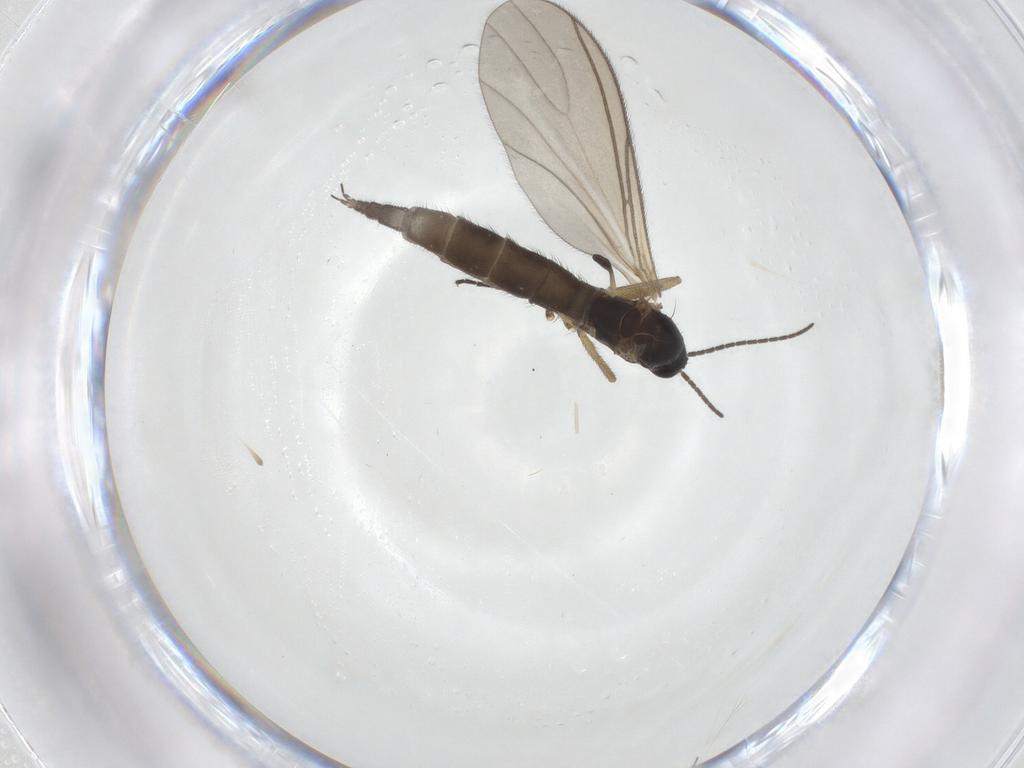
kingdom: Animalia
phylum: Arthropoda
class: Insecta
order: Diptera
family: Sciaridae
